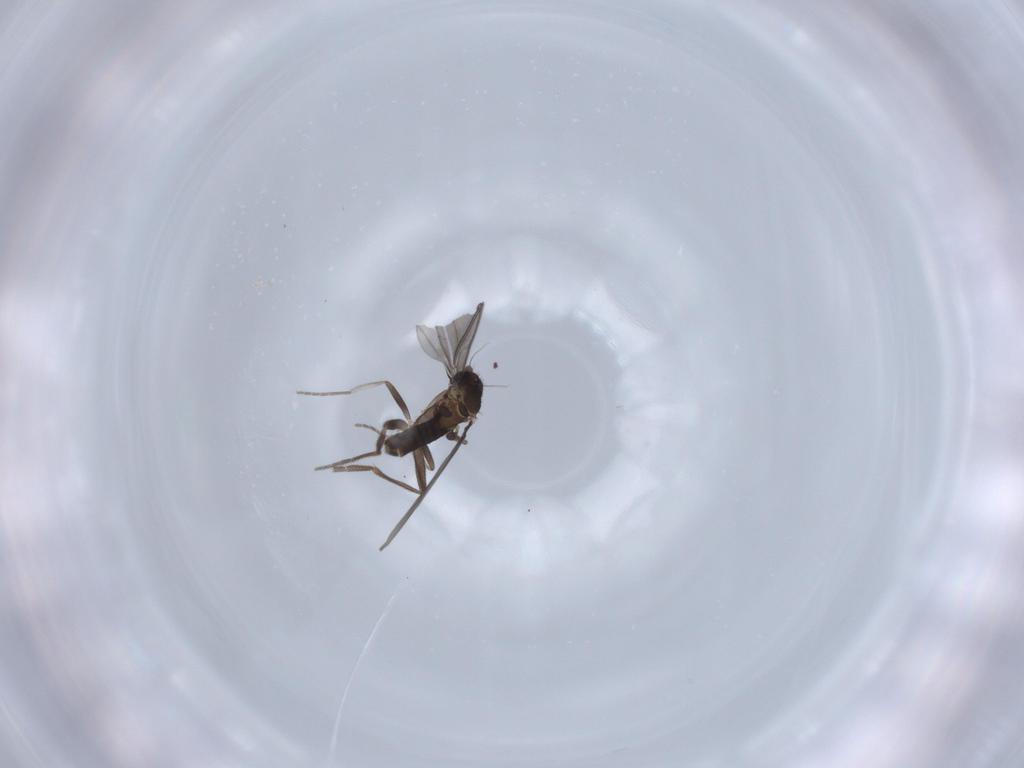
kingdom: Animalia
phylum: Arthropoda
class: Insecta
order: Diptera
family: Phoridae
